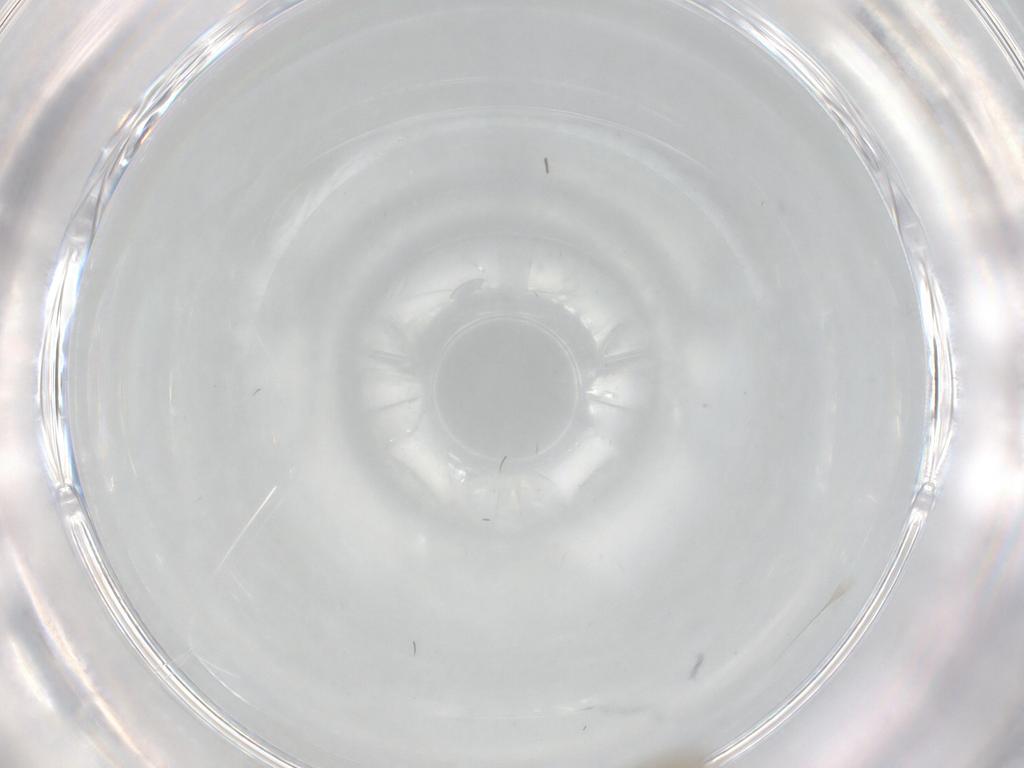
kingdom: Animalia
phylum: Arthropoda
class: Insecta
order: Diptera
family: Cecidomyiidae
